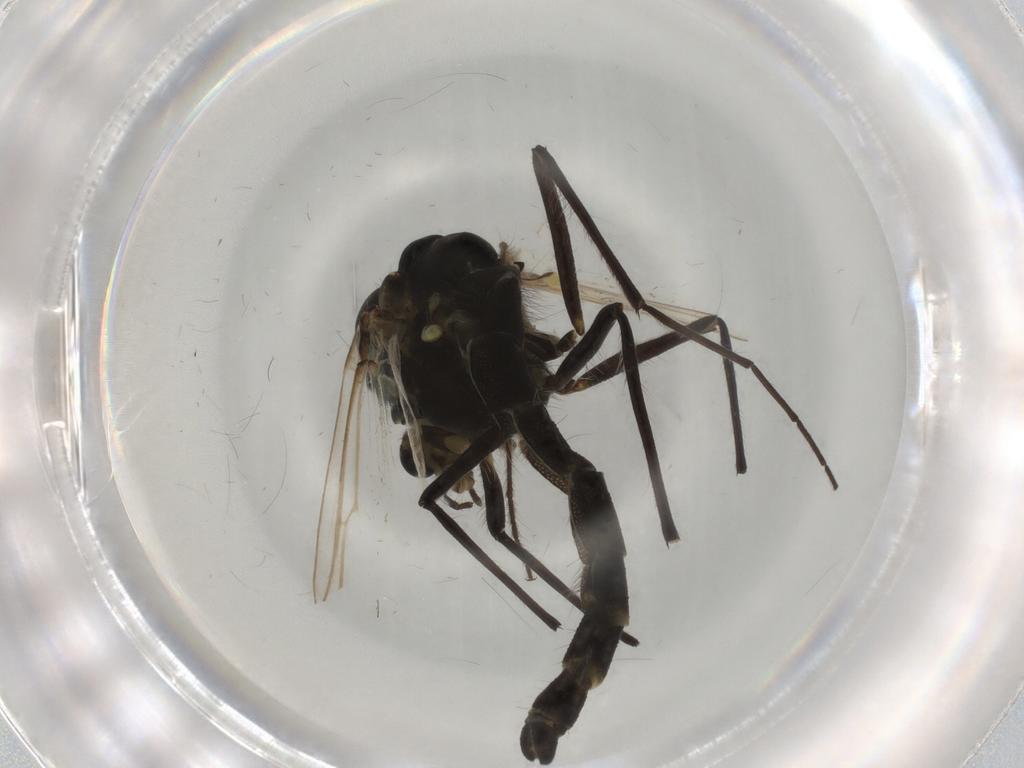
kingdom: Animalia
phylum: Arthropoda
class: Insecta
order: Diptera
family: Chironomidae
